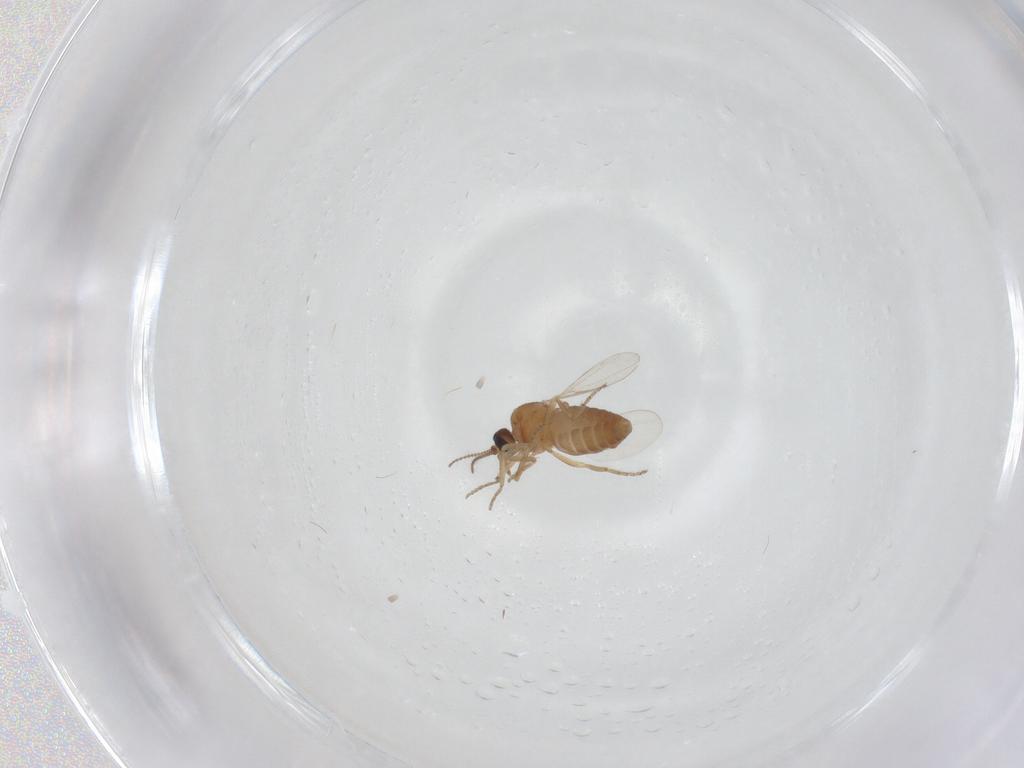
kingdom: Animalia
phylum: Arthropoda
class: Insecta
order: Diptera
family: Ceratopogonidae
